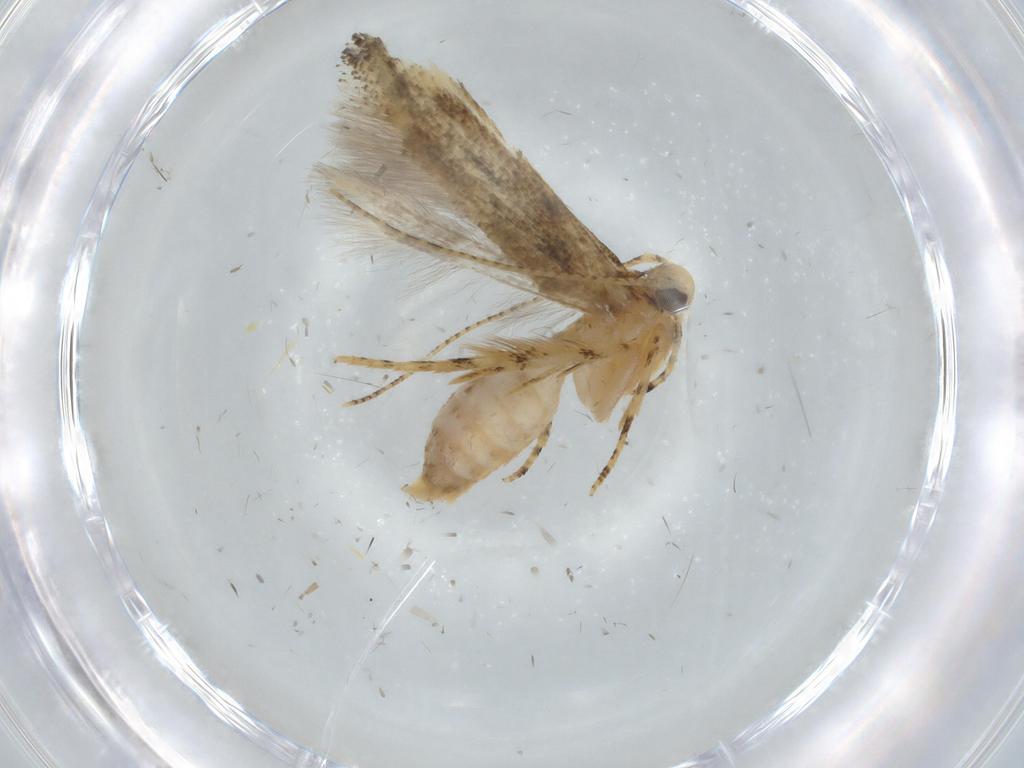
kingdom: Animalia
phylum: Arthropoda
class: Insecta
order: Lepidoptera
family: Gelechiidae
